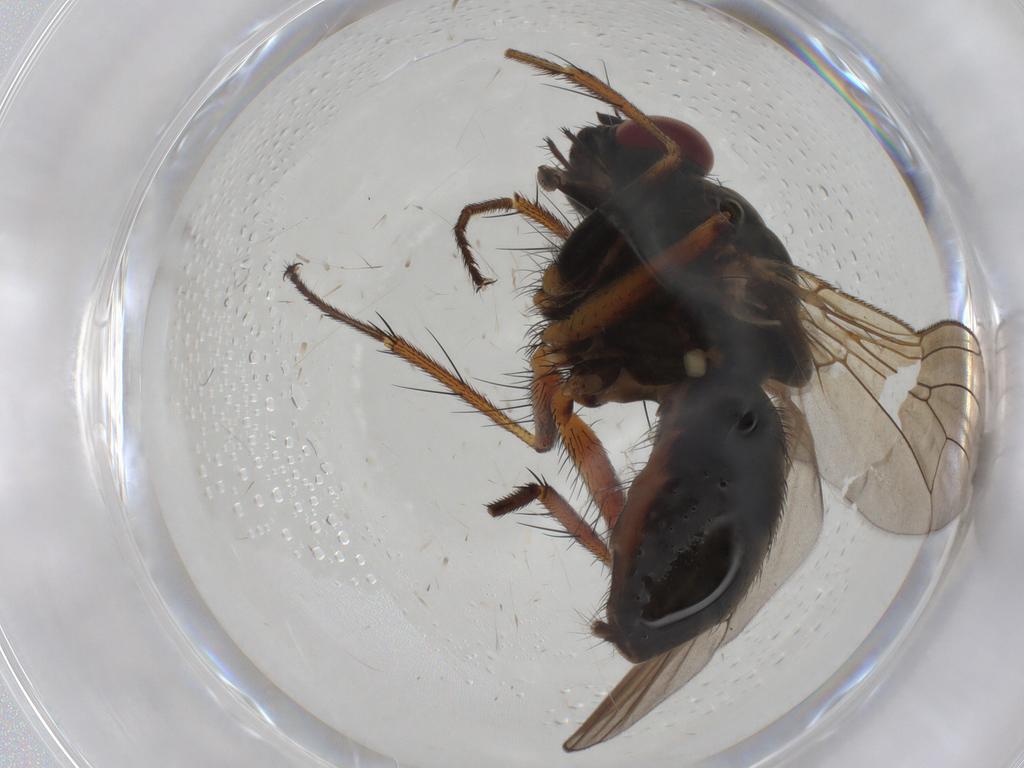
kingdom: Animalia
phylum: Arthropoda
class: Insecta
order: Diptera
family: Muscidae
